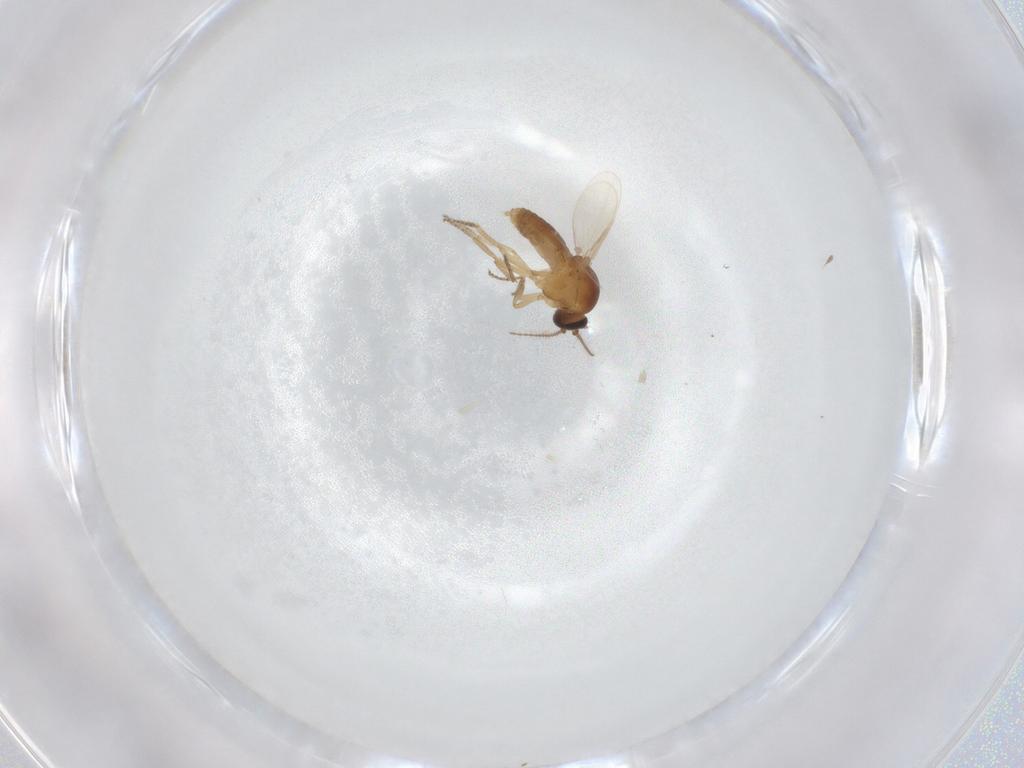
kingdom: Animalia
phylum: Arthropoda
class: Insecta
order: Diptera
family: Ceratopogonidae
